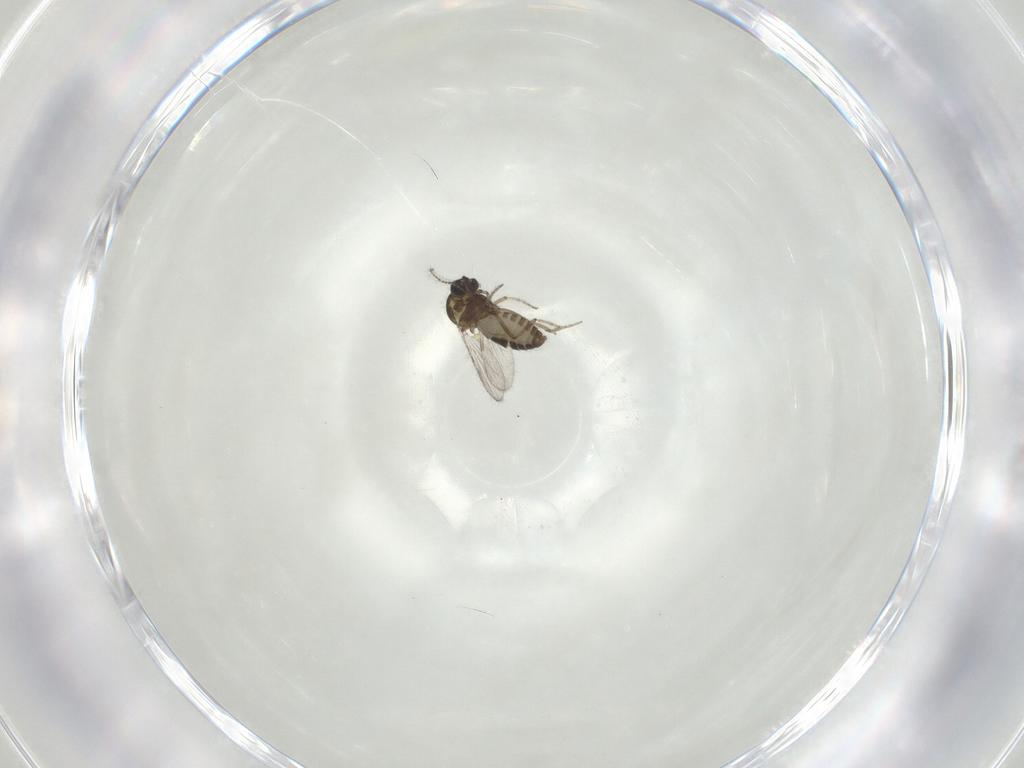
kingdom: Animalia
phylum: Arthropoda
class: Insecta
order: Diptera
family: Ceratopogonidae
